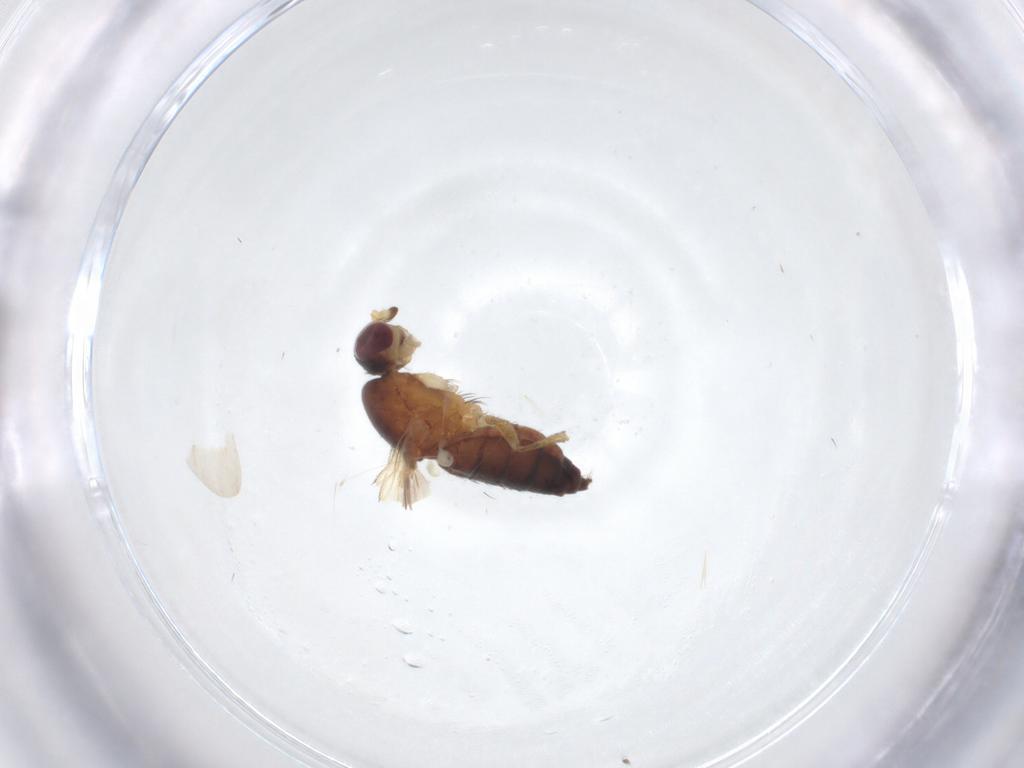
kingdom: Animalia
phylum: Arthropoda
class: Insecta
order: Diptera
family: Heleomyzidae
